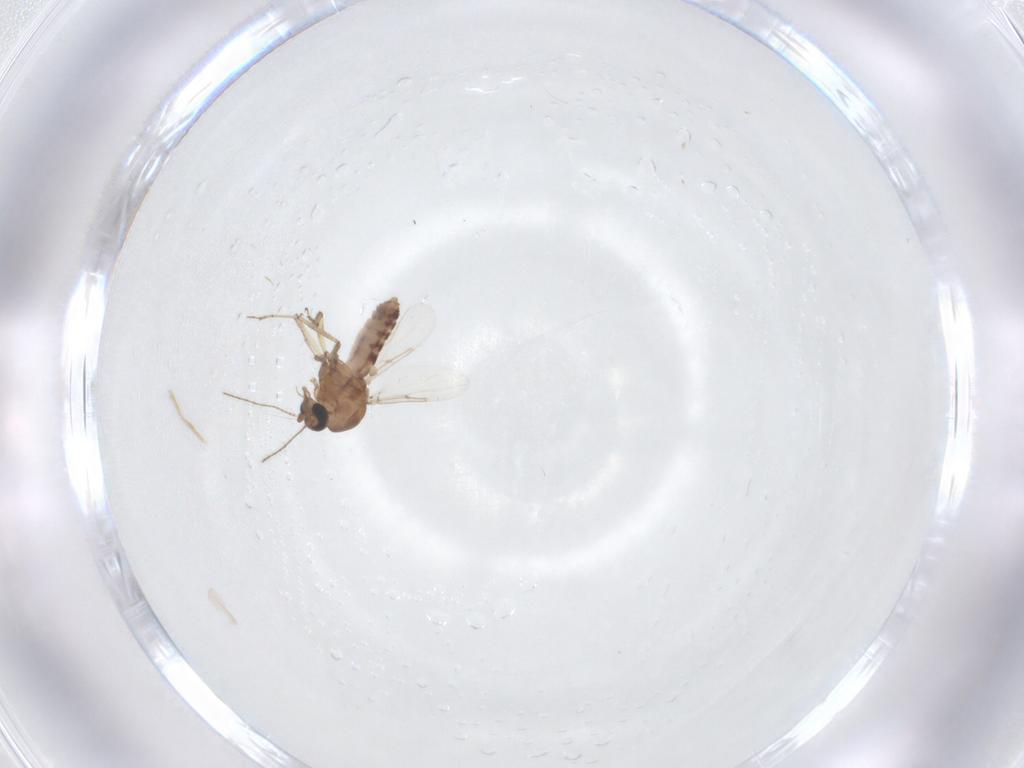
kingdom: Animalia
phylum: Arthropoda
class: Insecta
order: Diptera
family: Ceratopogonidae
